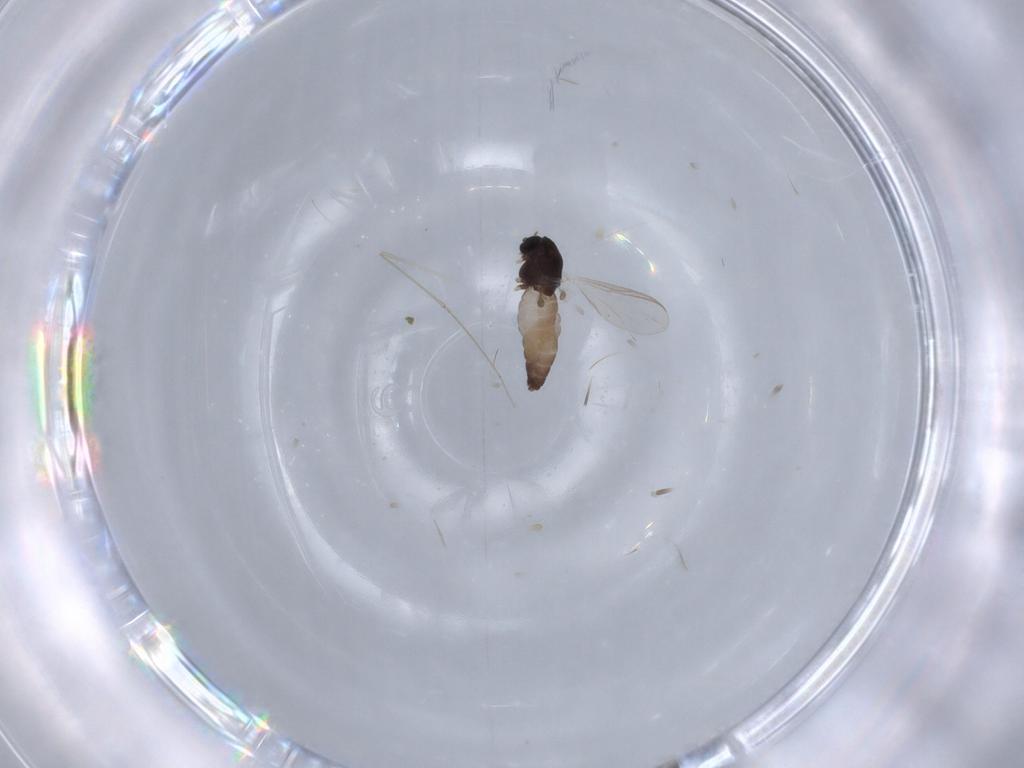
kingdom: Animalia
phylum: Arthropoda
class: Insecta
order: Diptera
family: Chironomidae
